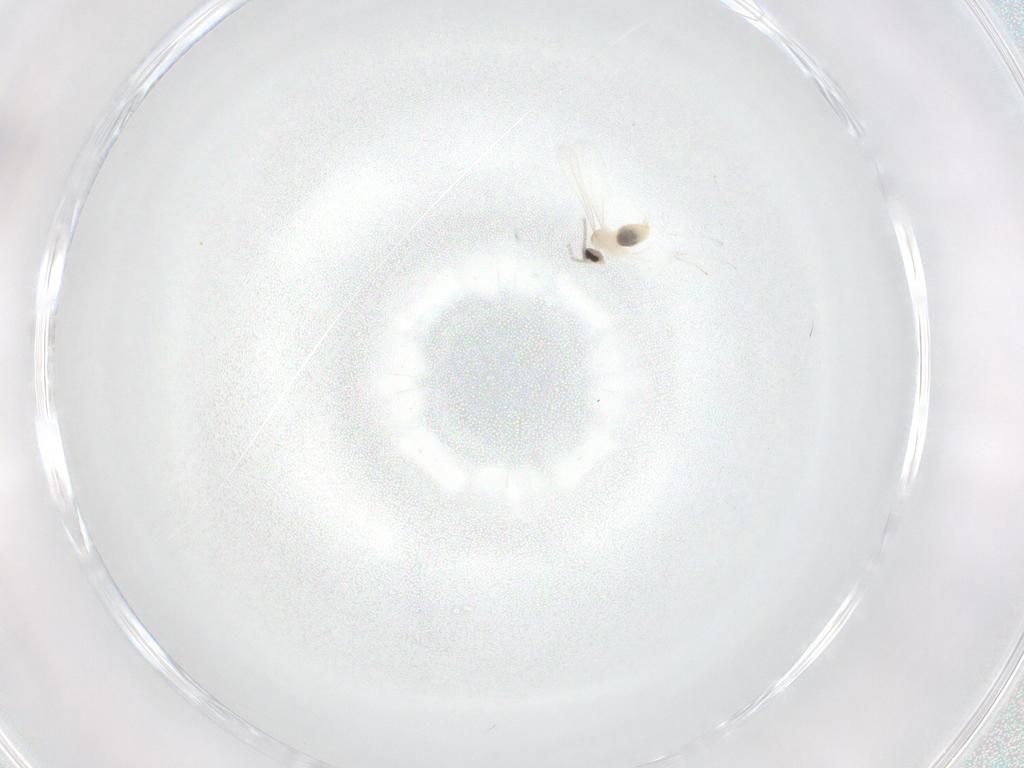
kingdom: Animalia
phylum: Arthropoda
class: Insecta
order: Diptera
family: Cecidomyiidae
